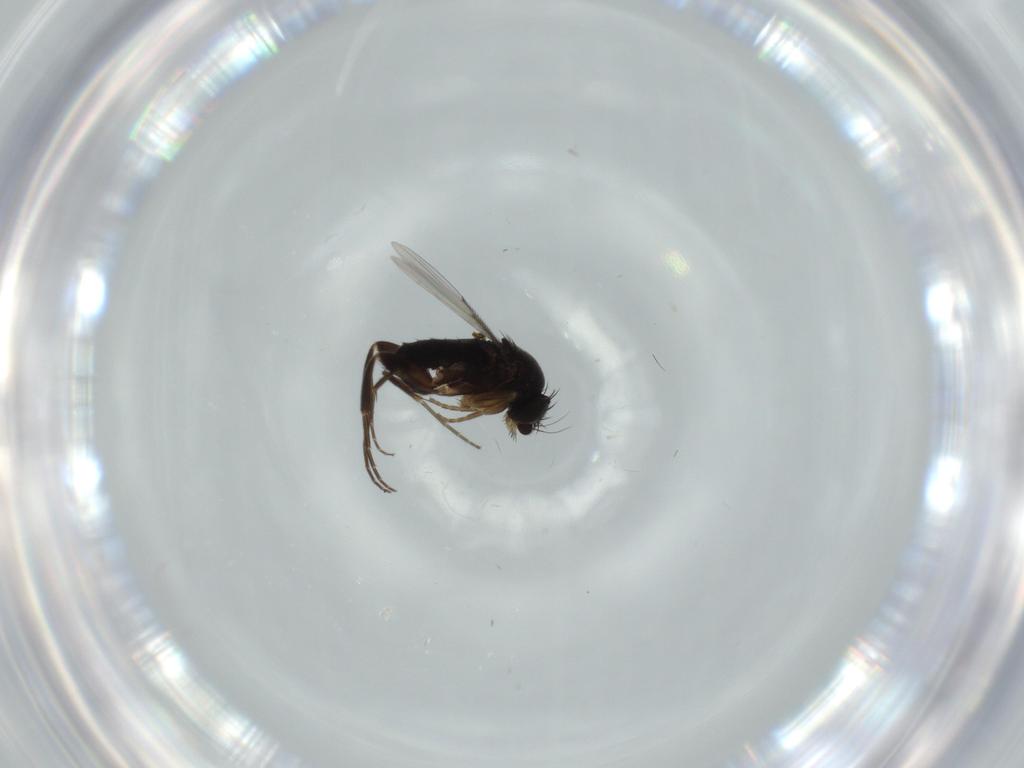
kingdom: Animalia
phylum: Arthropoda
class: Insecta
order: Diptera
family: Phoridae
